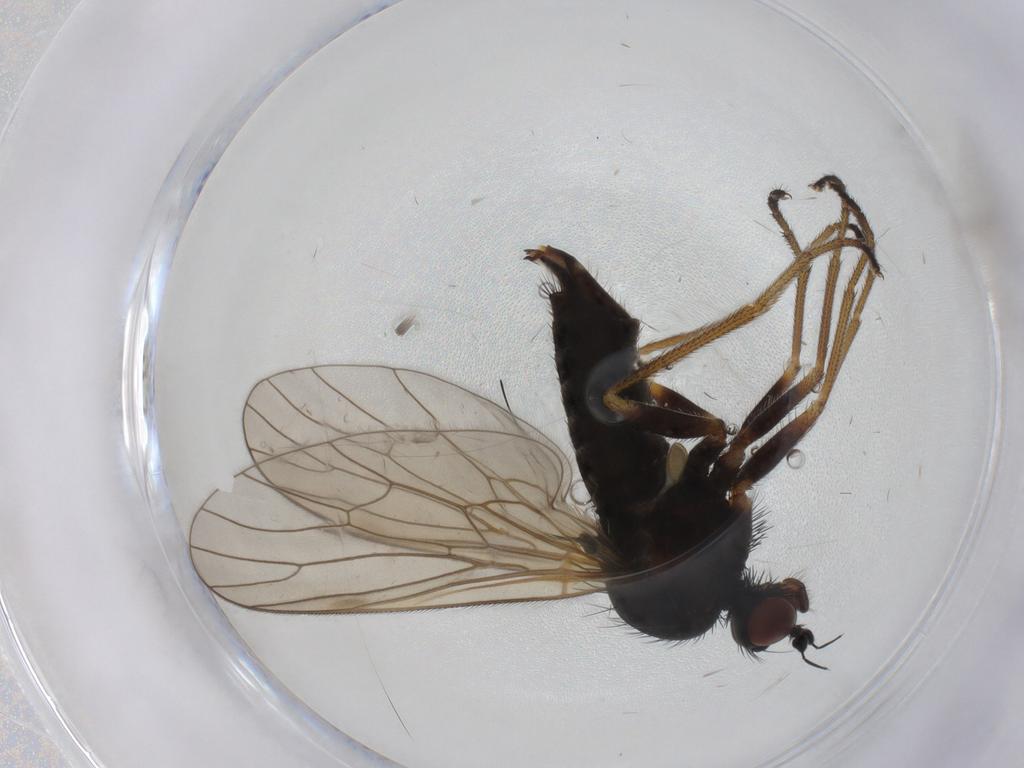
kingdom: Animalia
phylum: Arthropoda
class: Insecta
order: Diptera
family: Brachystomatidae
